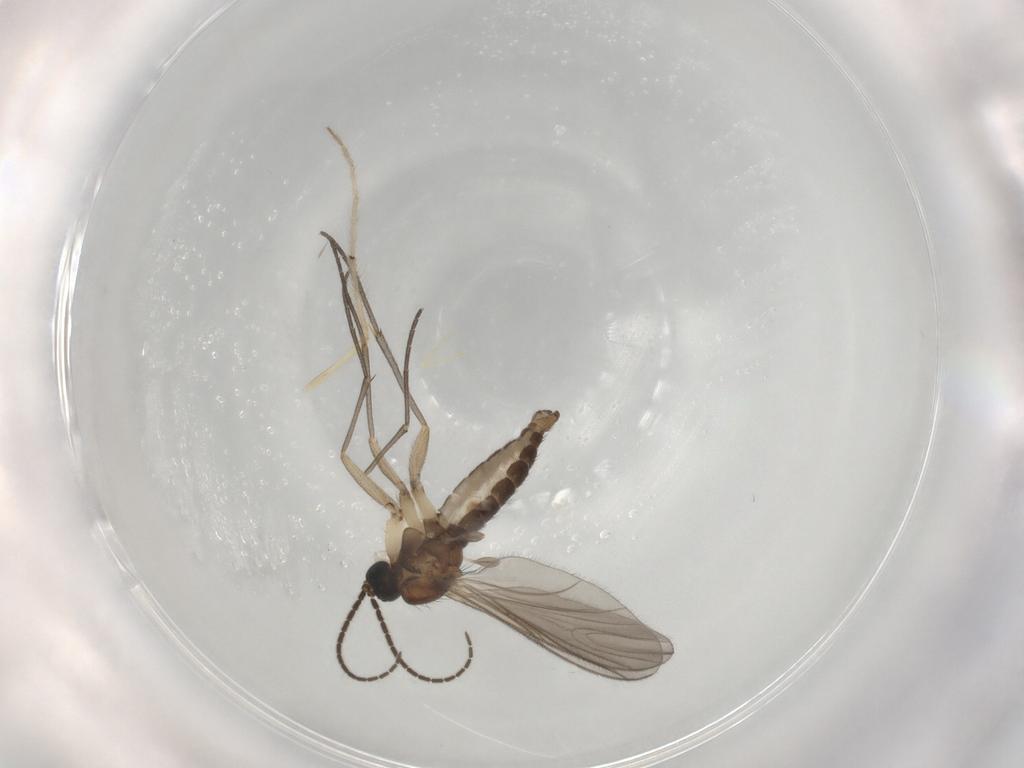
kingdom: Animalia
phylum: Arthropoda
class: Insecta
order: Diptera
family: Sciaridae
